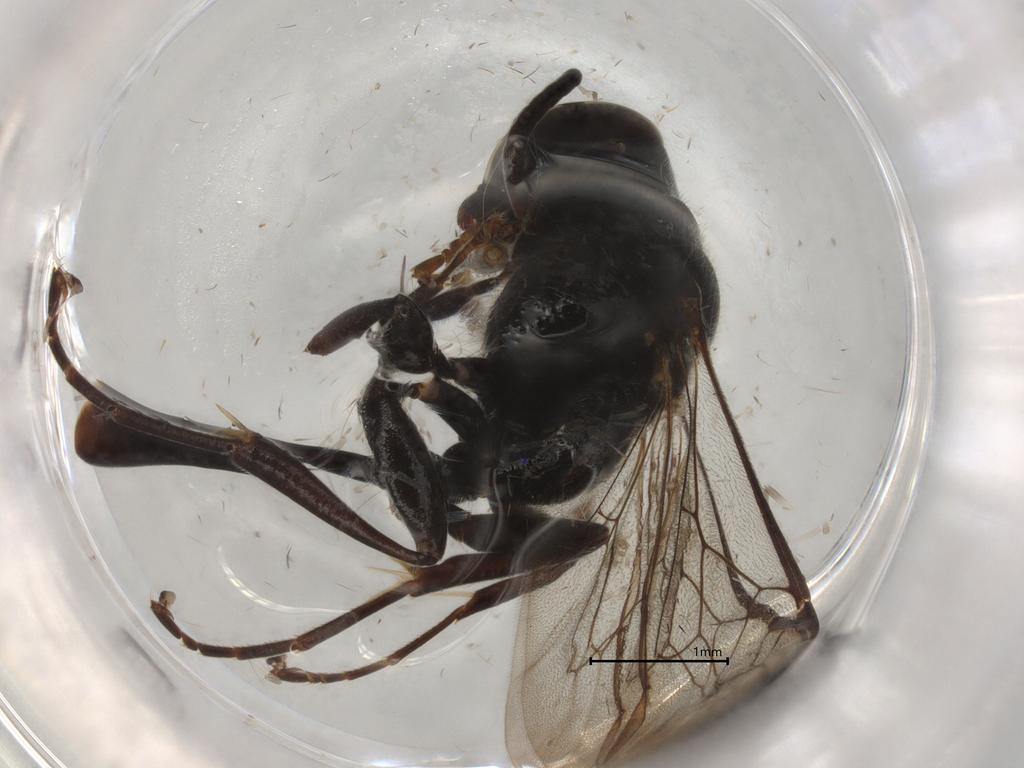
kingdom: Animalia
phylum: Arthropoda
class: Insecta
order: Hymenoptera
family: Crabronidae
